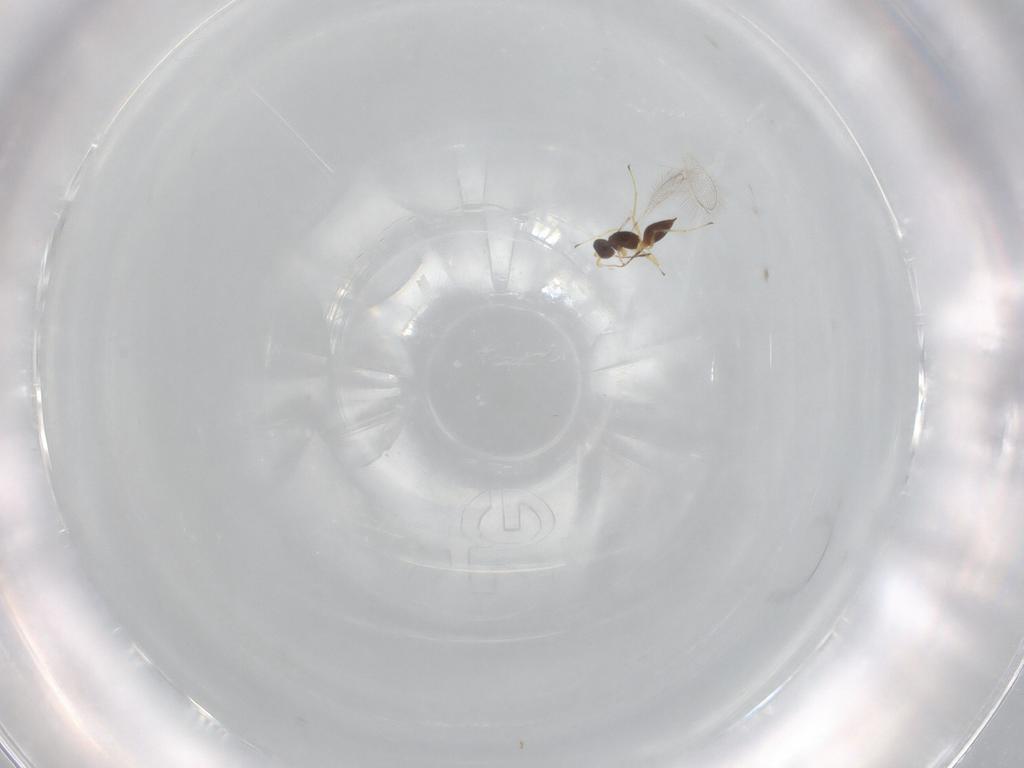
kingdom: Animalia
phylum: Arthropoda
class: Insecta
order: Hymenoptera
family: Mymaridae
